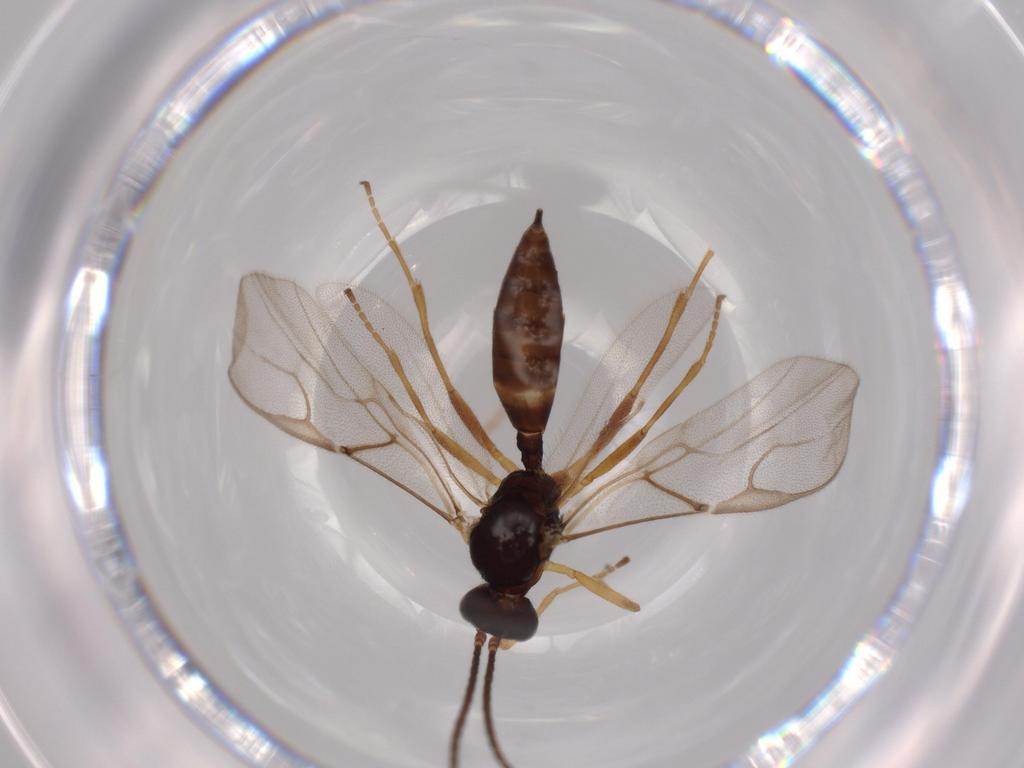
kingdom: Animalia
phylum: Arthropoda
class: Insecta
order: Hymenoptera
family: Braconidae
